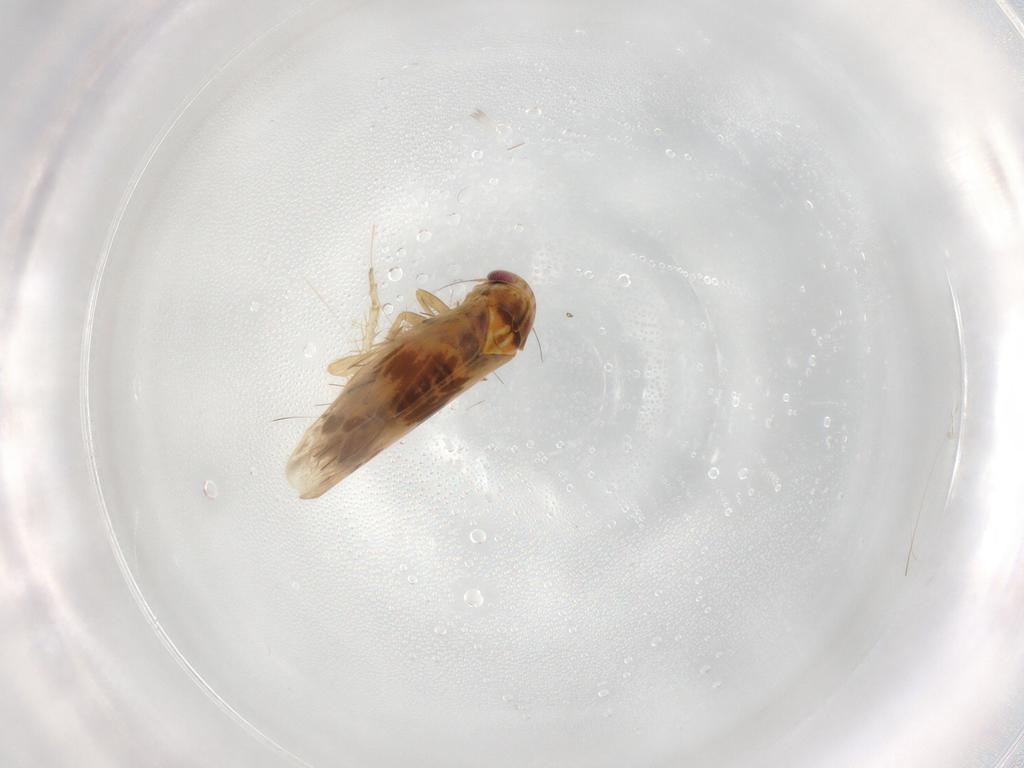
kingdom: Animalia
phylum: Arthropoda
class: Insecta
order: Hemiptera
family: Cicadellidae
